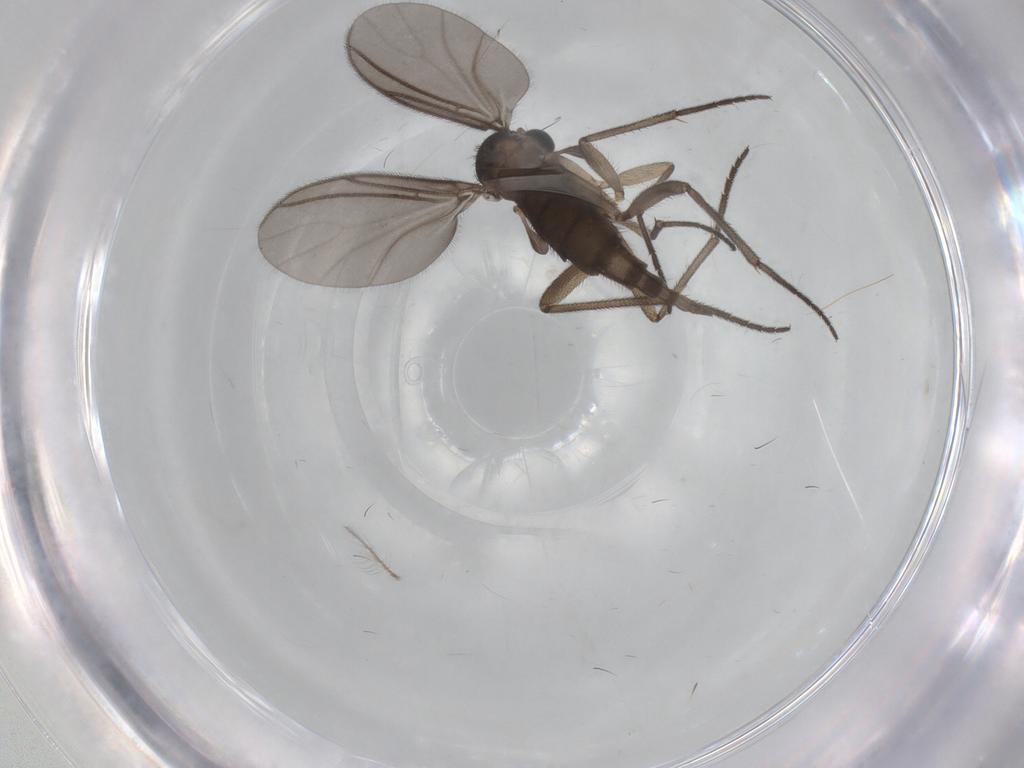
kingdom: Animalia
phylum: Arthropoda
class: Insecta
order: Diptera
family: Sciaridae
